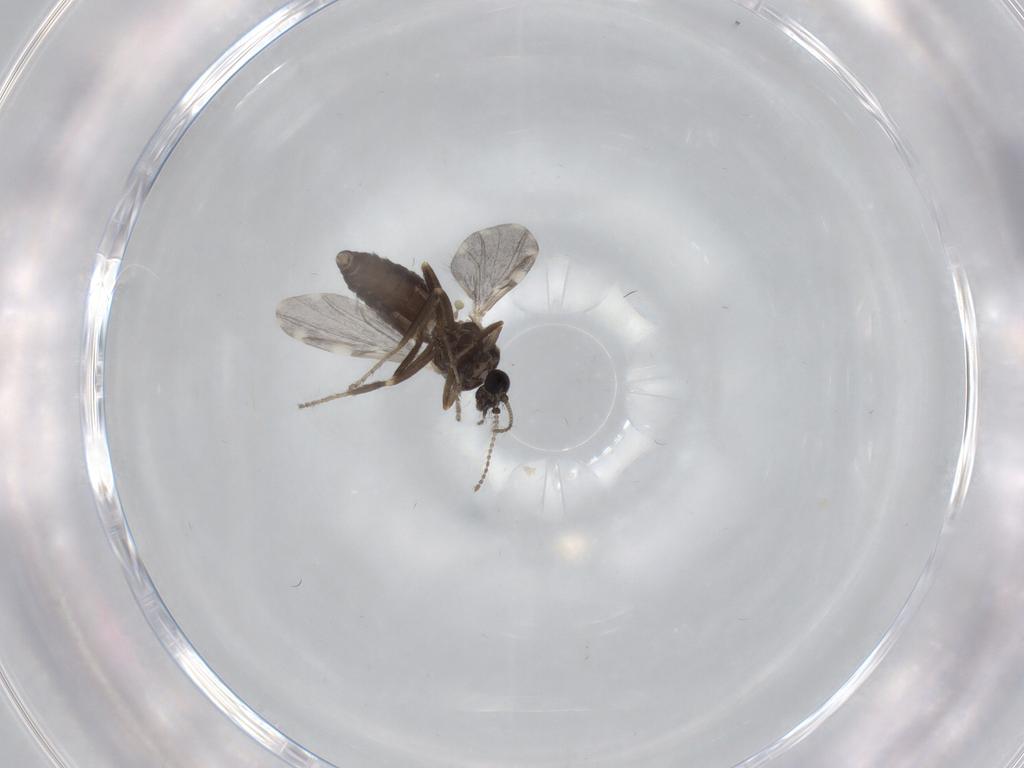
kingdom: Animalia
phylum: Arthropoda
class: Insecta
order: Diptera
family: Ceratopogonidae
